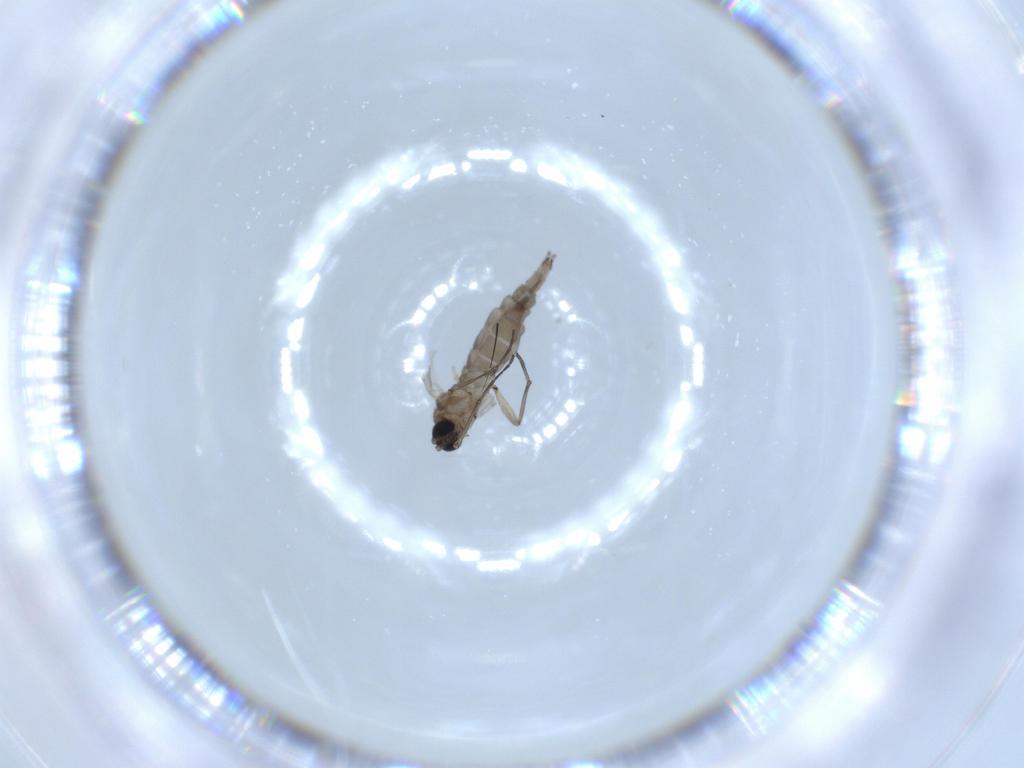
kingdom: Animalia
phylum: Arthropoda
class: Insecta
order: Diptera
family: Sciaridae
